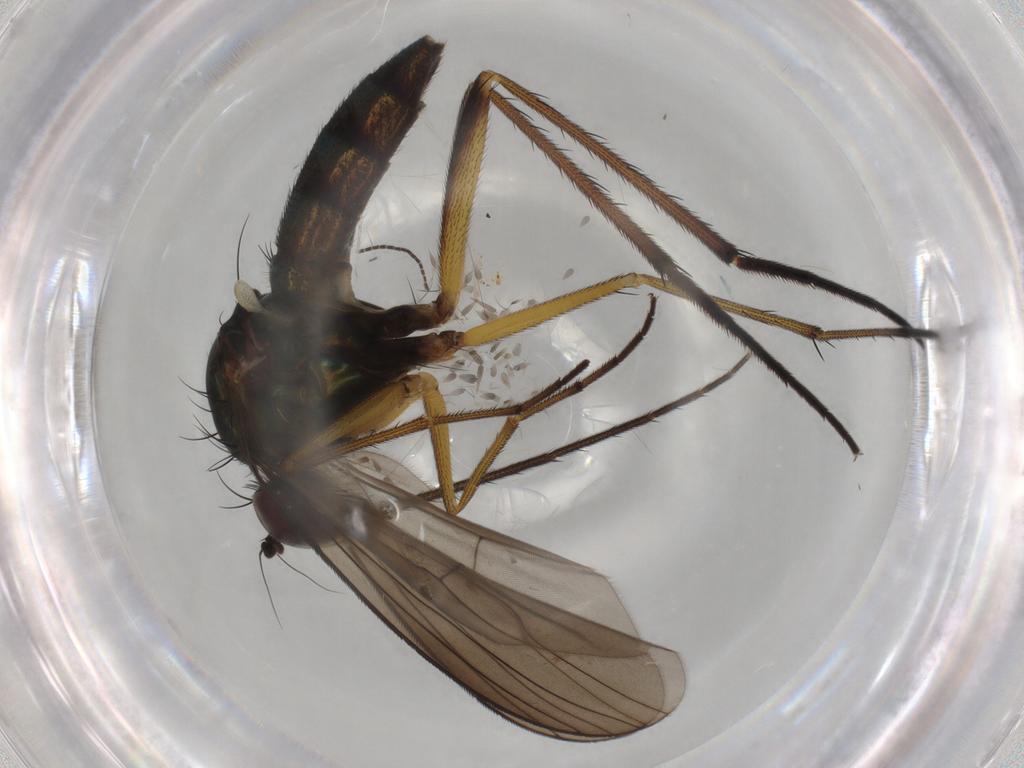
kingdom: Animalia
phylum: Arthropoda
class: Insecta
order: Diptera
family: Dolichopodidae
